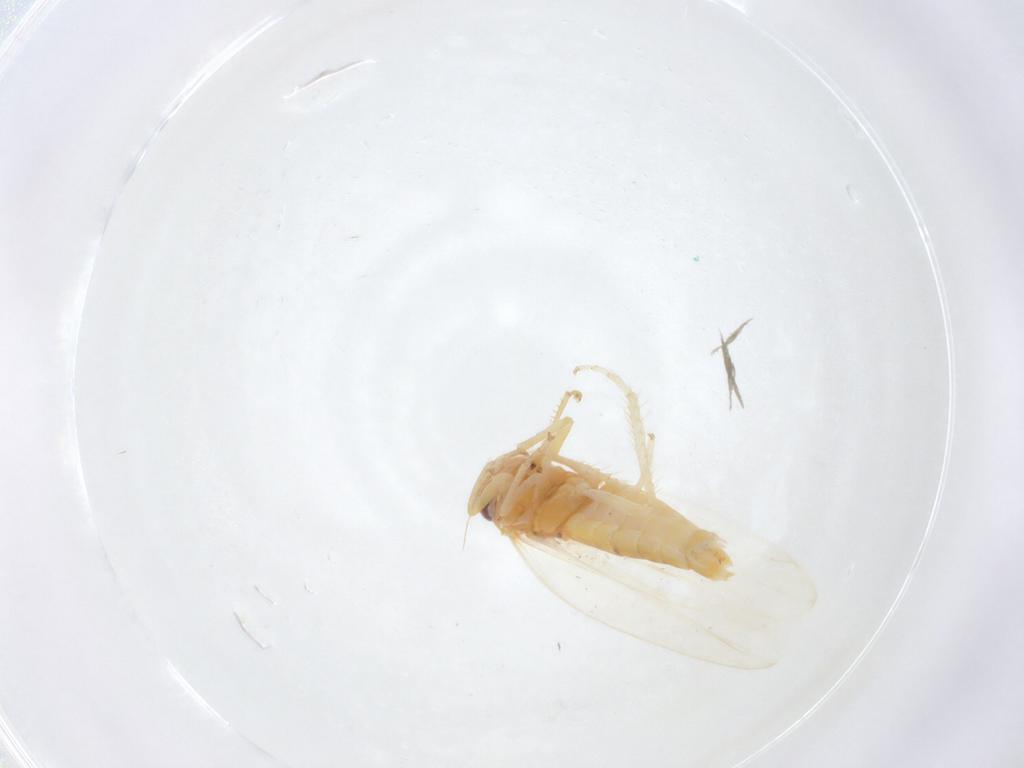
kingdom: Animalia
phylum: Arthropoda
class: Insecta
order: Hemiptera
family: Cicadellidae
